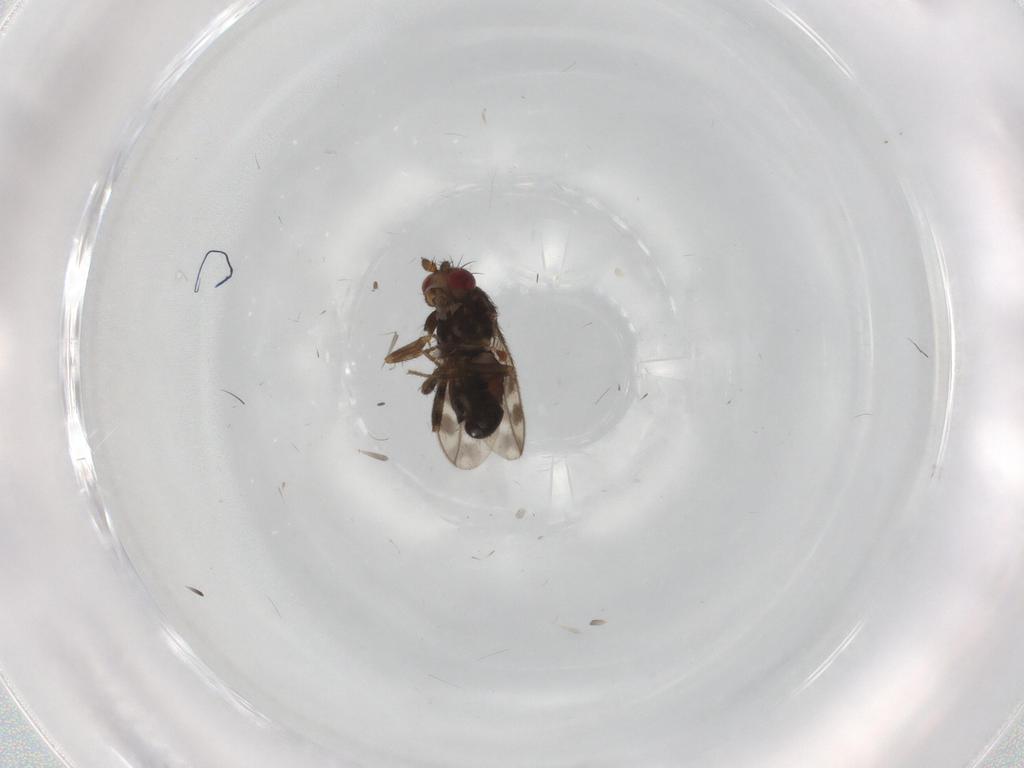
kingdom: Animalia
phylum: Arthropoda
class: Insecta
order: Diptera
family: Sphaeroceridae
